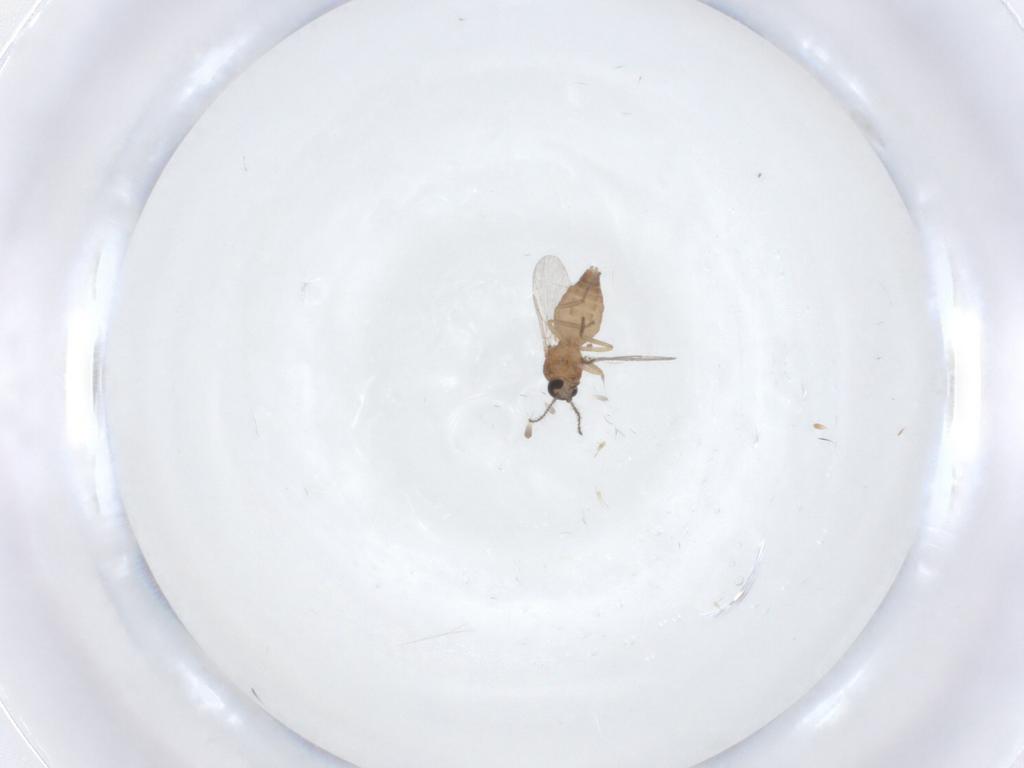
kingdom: Animalia
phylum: Arthropoda
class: Insecta
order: Diptera
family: Ceratopogonidae
